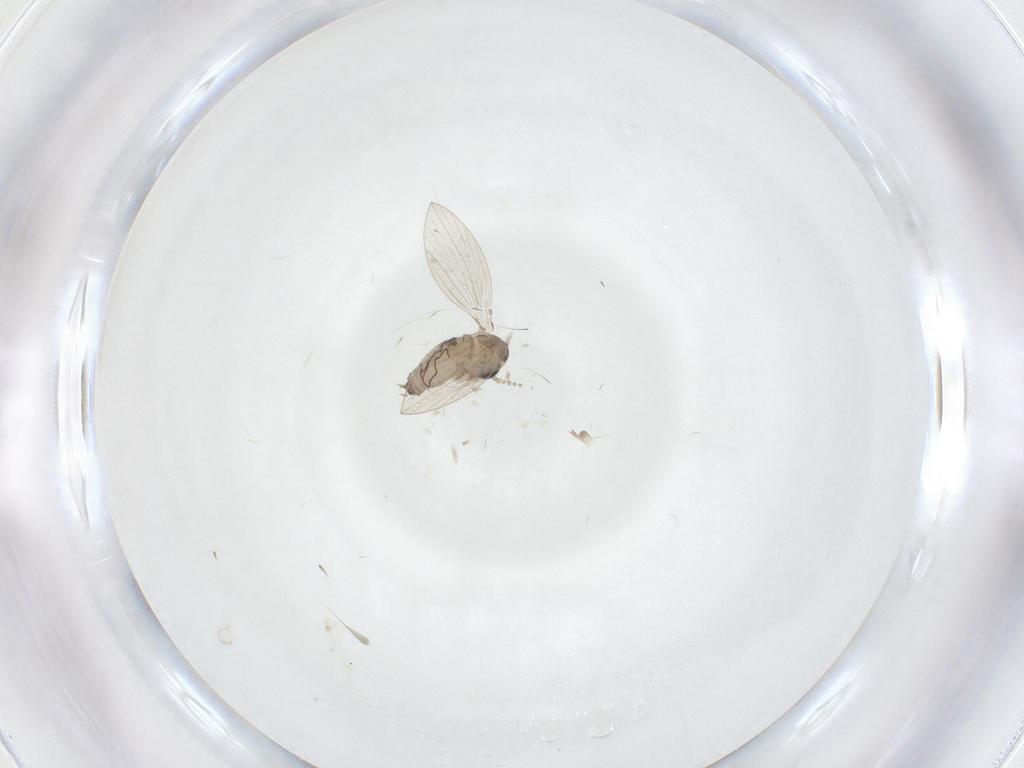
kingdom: Animalia
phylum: Arthropoda
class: Insecta
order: Diptera
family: Psychodidae
